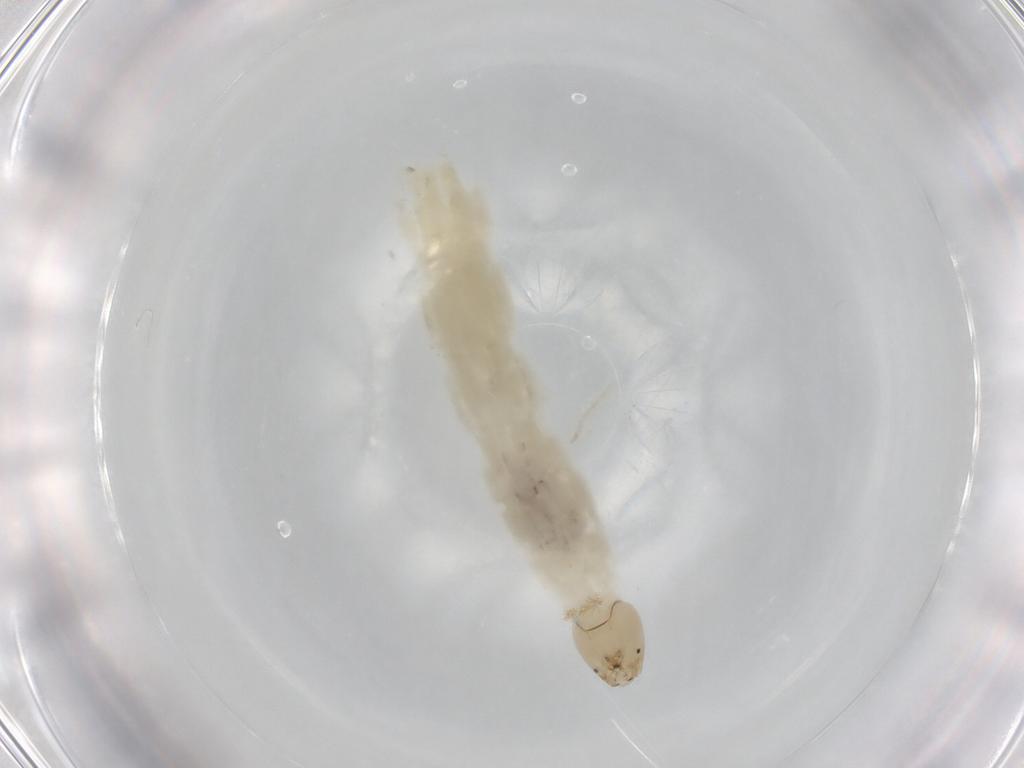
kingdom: Animalia
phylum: Arthropoda
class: Insecta
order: Diptera
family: Chironomidae
